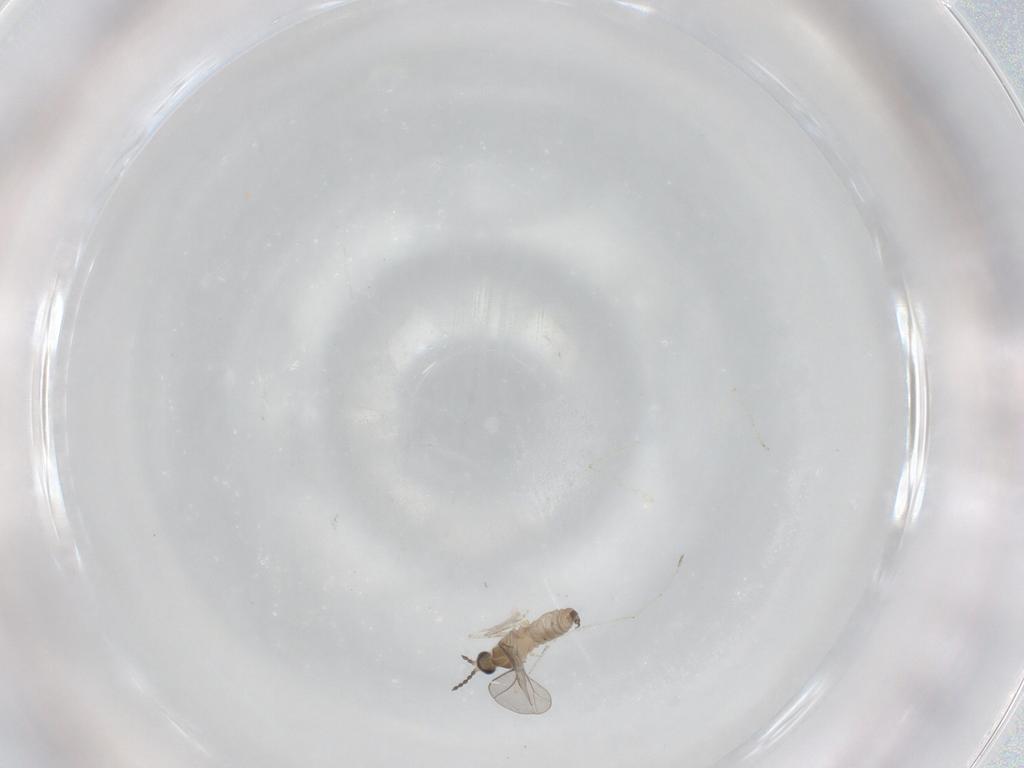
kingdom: Animalia
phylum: Arthropoda
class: Insecta
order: Diptera
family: Cecidomyiidae
